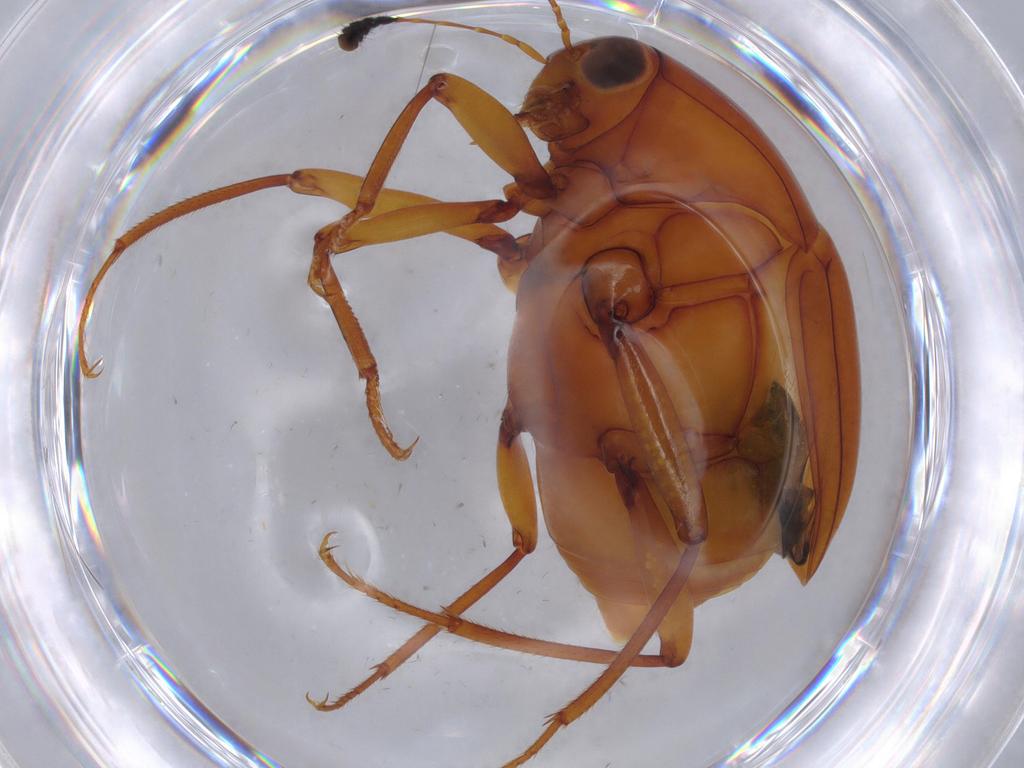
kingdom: Animalia
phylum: Arthropoda
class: Insecta
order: Coleoptera
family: Staphylinidae
